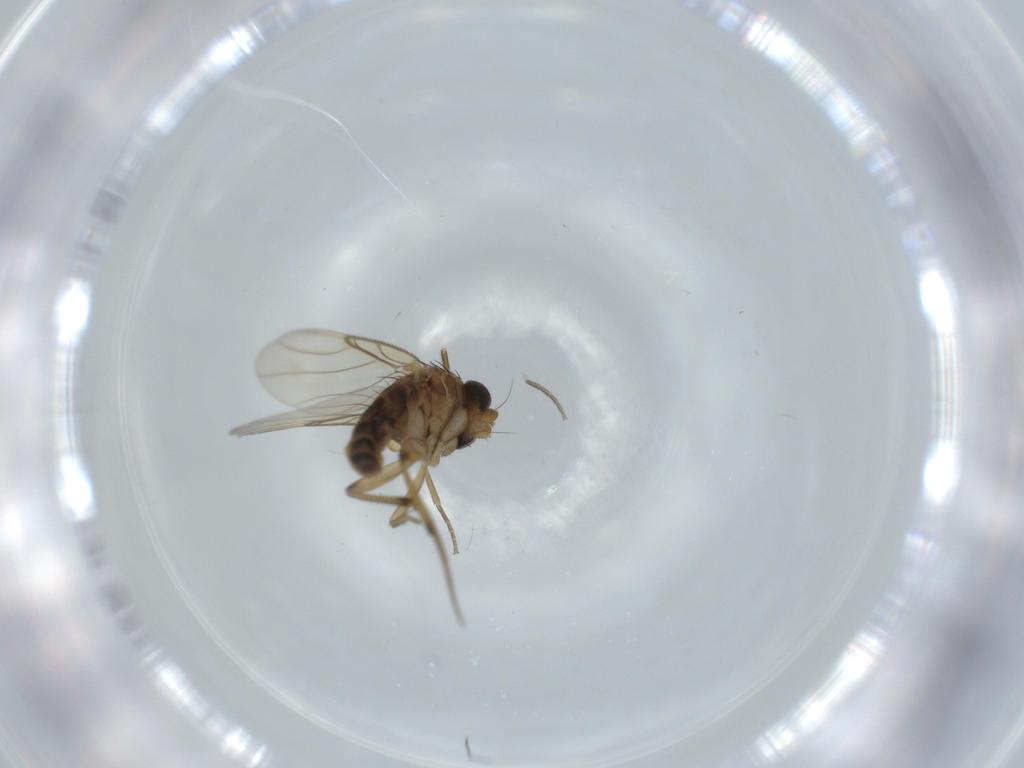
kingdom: Animalia
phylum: Arthropoda
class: Insecta
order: Diptera
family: Phoridae
